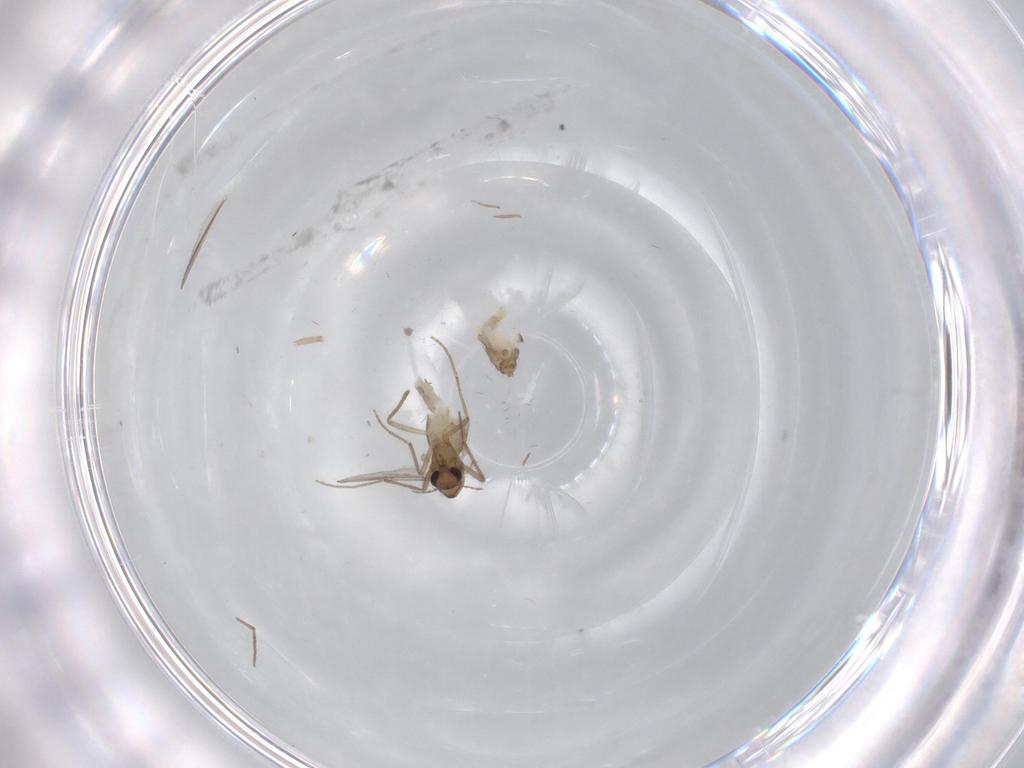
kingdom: Animalia
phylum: Arthropoda
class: Insecta
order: Diptera
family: Chironomidae
